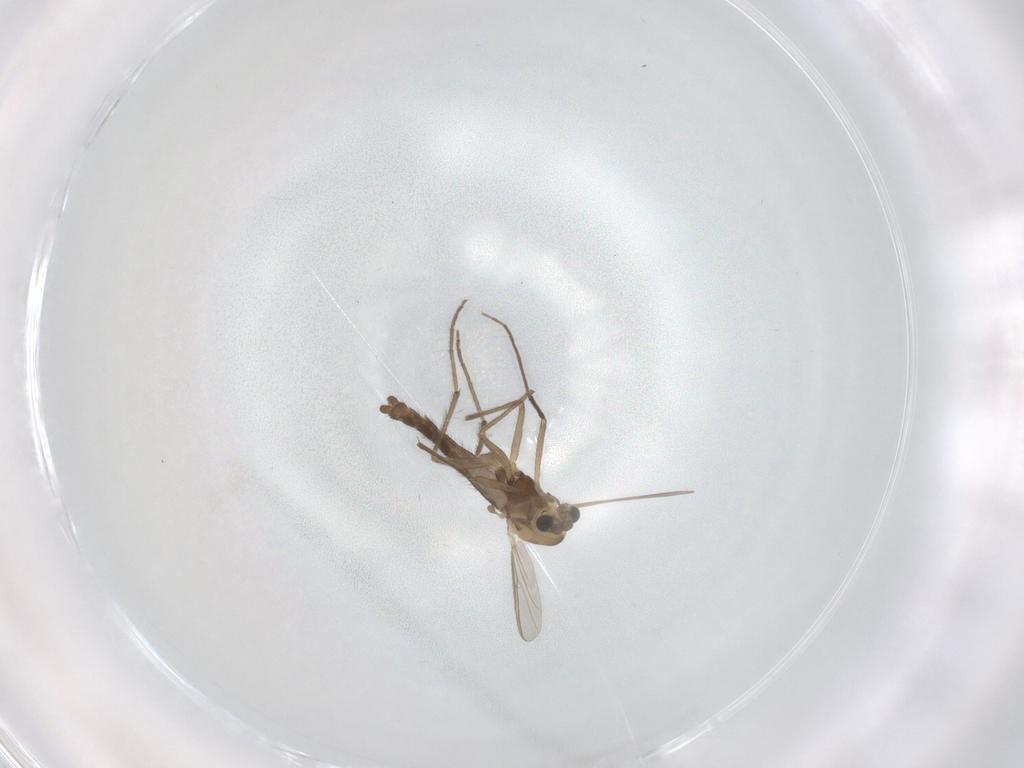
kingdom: Animalia
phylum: Arthropoda
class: Insecta
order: Diptera
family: Chironomidae
